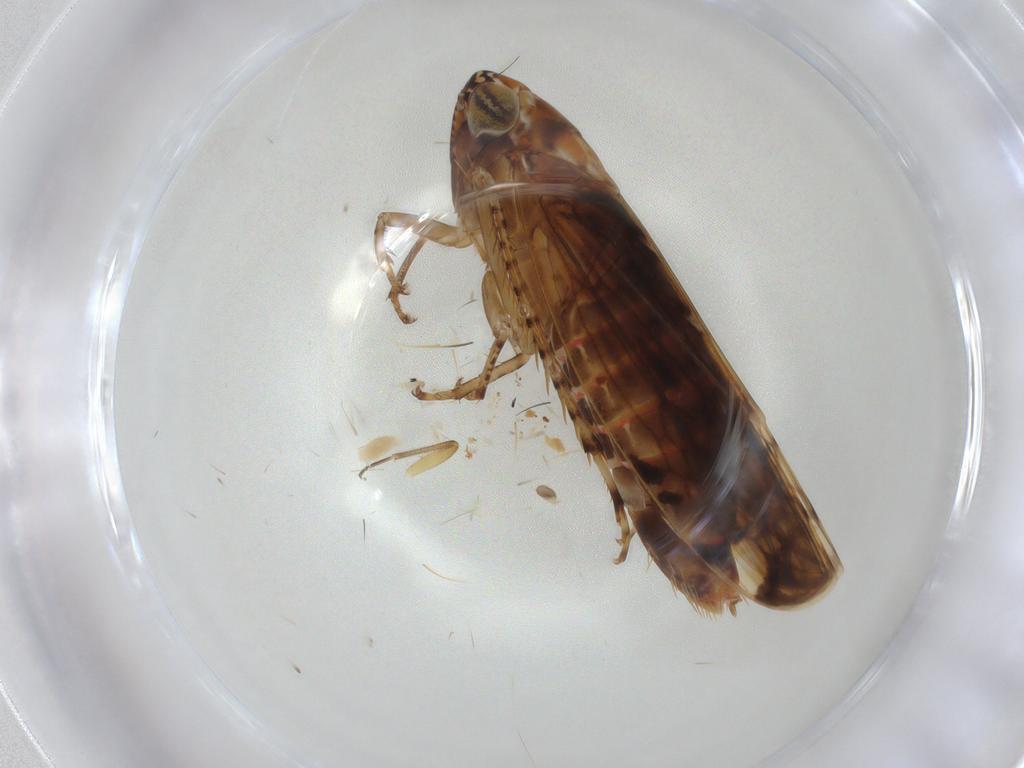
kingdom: Animalia
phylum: Arthropoda
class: Insecta
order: Hemiptera
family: Cicadellidae
